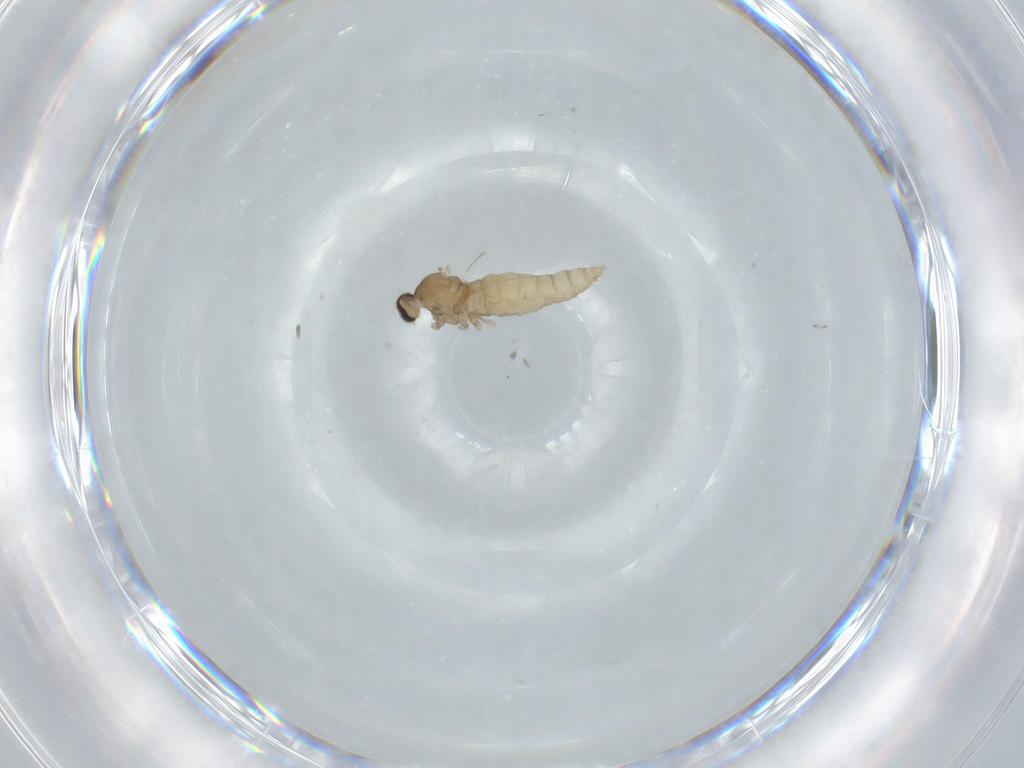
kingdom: Animalia
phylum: Arthropoda
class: Insecta
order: Diptera
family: Cecidomyiidae
